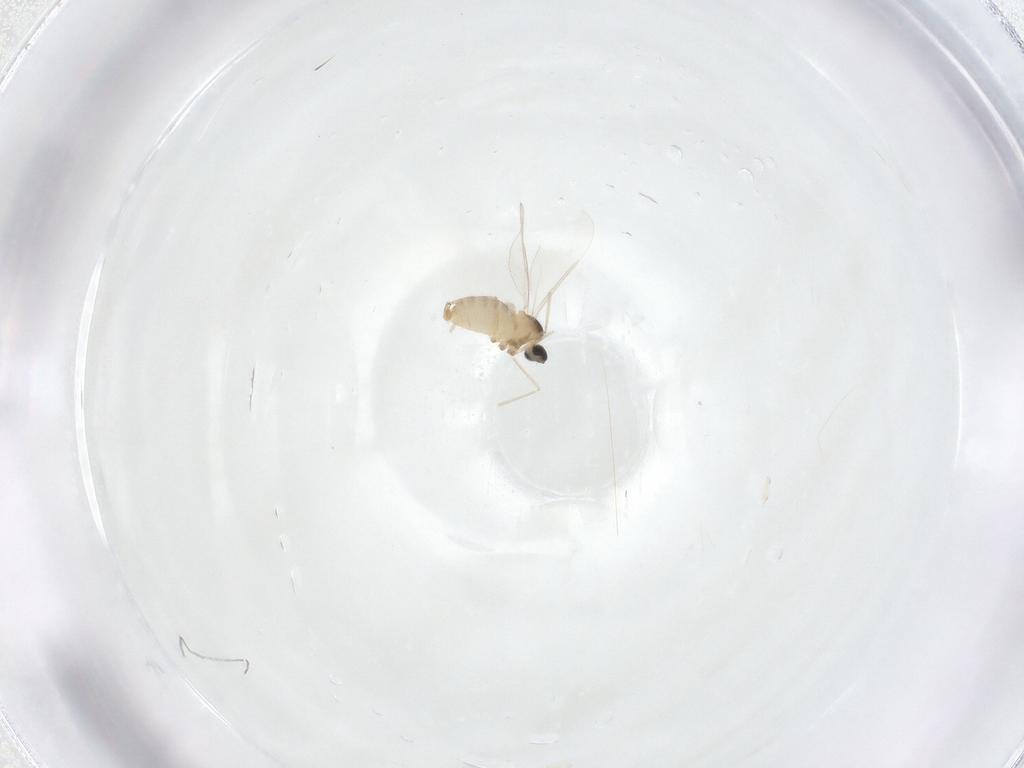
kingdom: Animalia
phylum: Arthropoda
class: Insecta
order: Diptera
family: Cecidomyiidae
